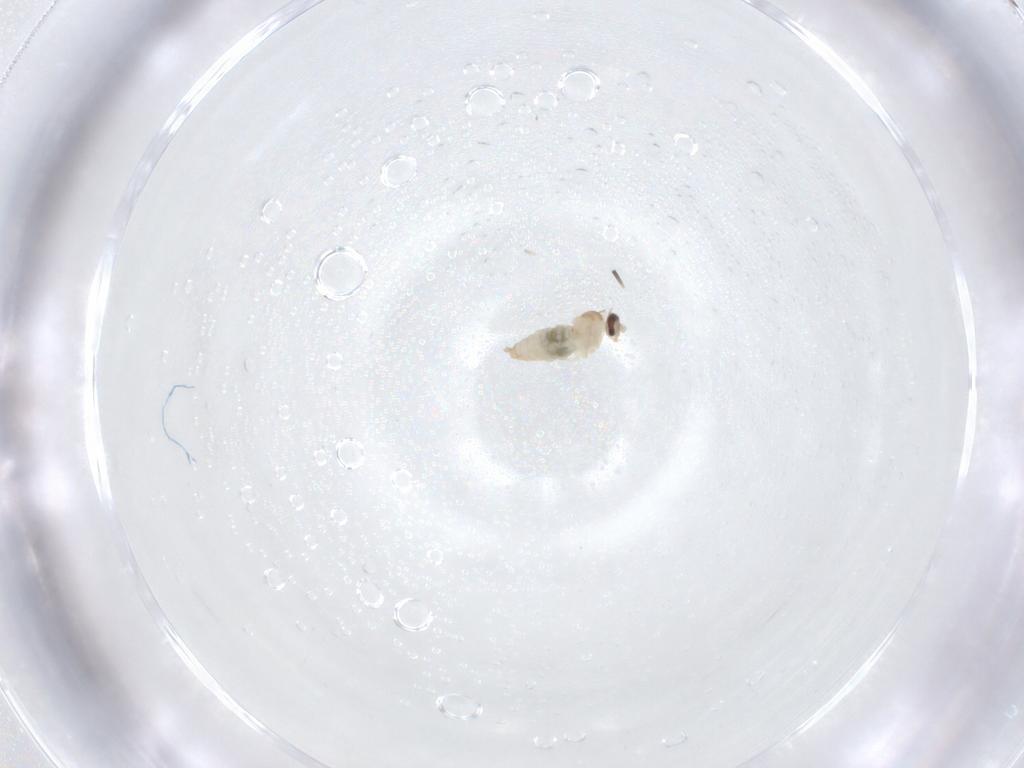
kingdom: Animalia
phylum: Arthropoda
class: Insecta
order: Diptera
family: Cecidomyiidae
